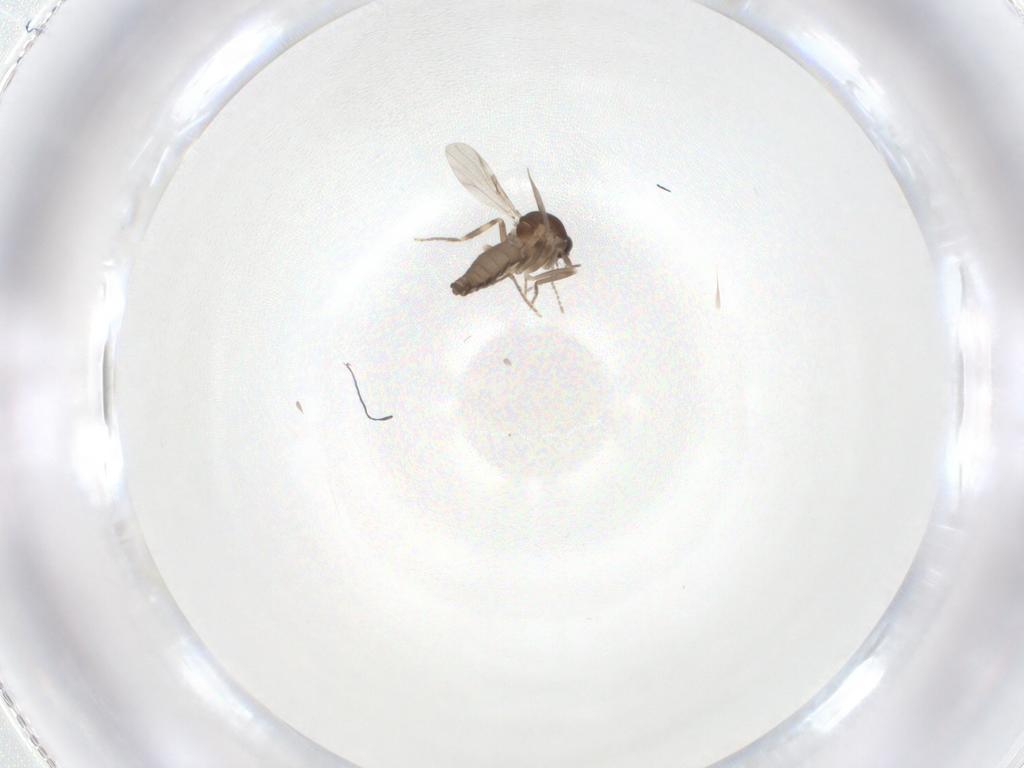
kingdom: Animalia
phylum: Arthropoda
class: Insecta
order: Diptera
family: Ceratopogonidae
